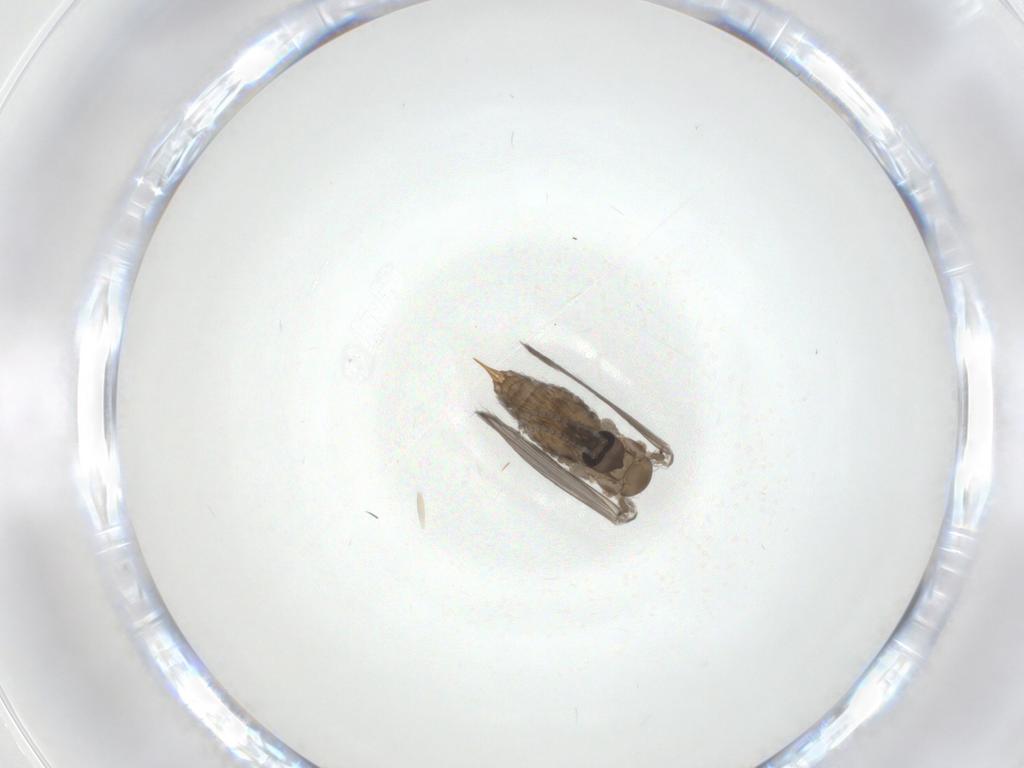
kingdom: Animalia
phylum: Arthropoda
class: Insecta
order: Diptera
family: Psychodidae
